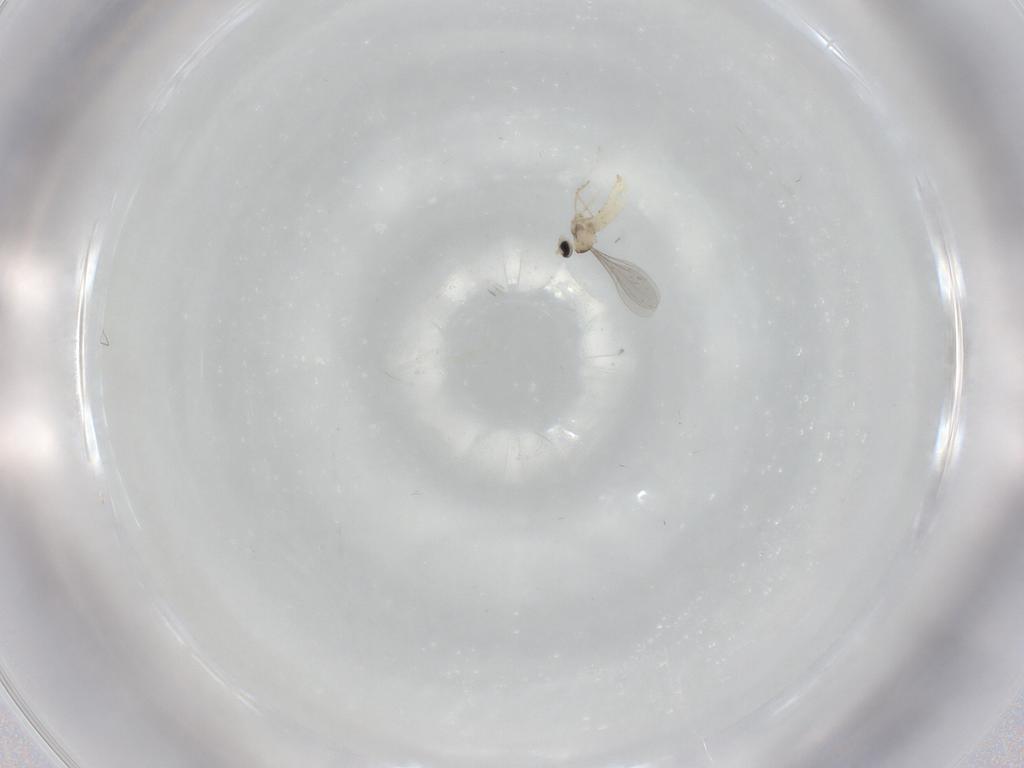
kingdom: Animalia
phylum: Arthropoda
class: Insecta
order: Diptera
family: Cecidomyiidae
